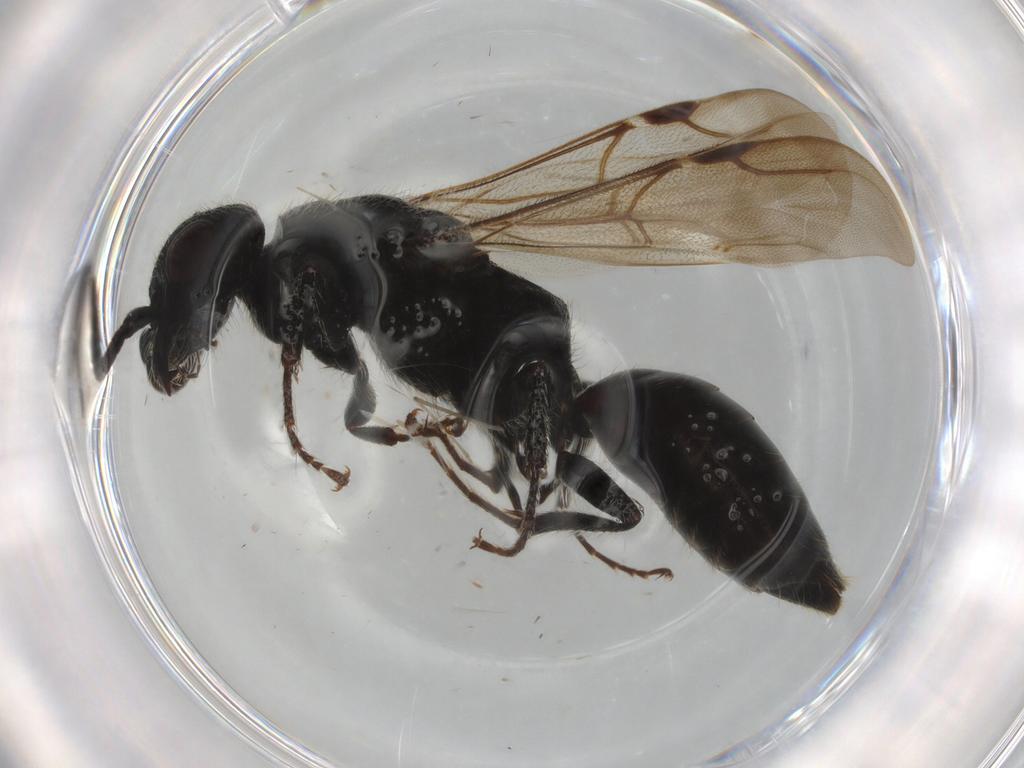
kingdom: Animalia
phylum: Arthropoda
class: Insecta
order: Hymenoptera
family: Bethylidae
